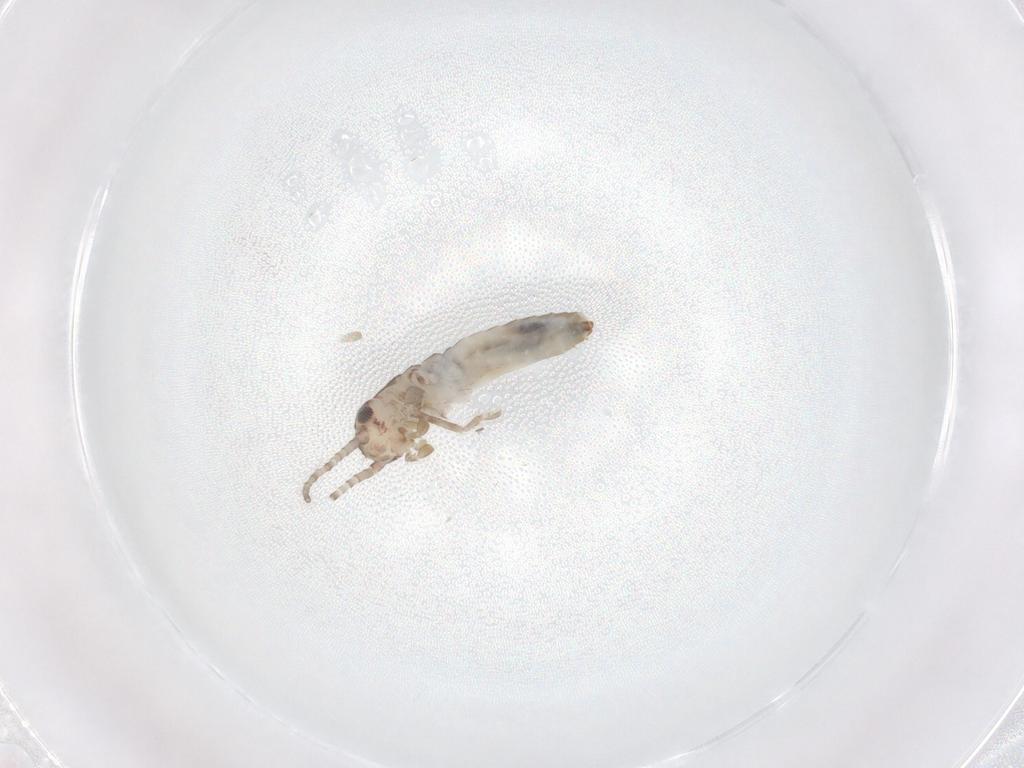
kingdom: Animalia
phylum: Arthropoda
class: Insecta
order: Orthoptera
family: Mogoplistidae
